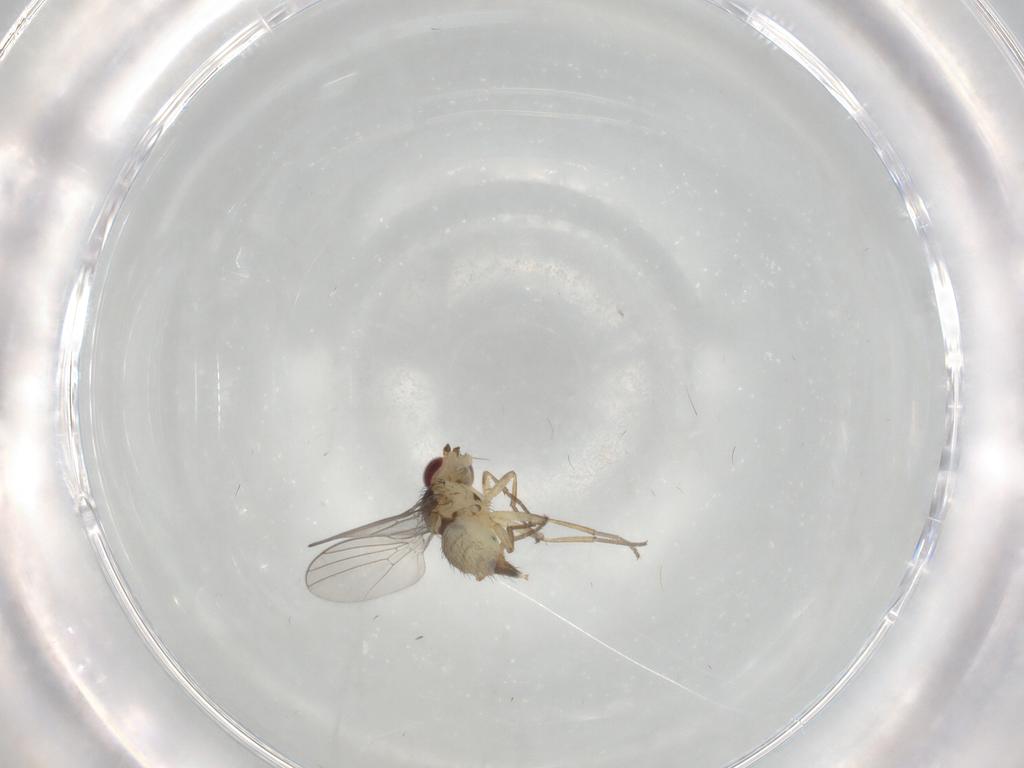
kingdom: Animalia
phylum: Arthropoda
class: Insecta
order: Diptera
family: Agromyzidae
